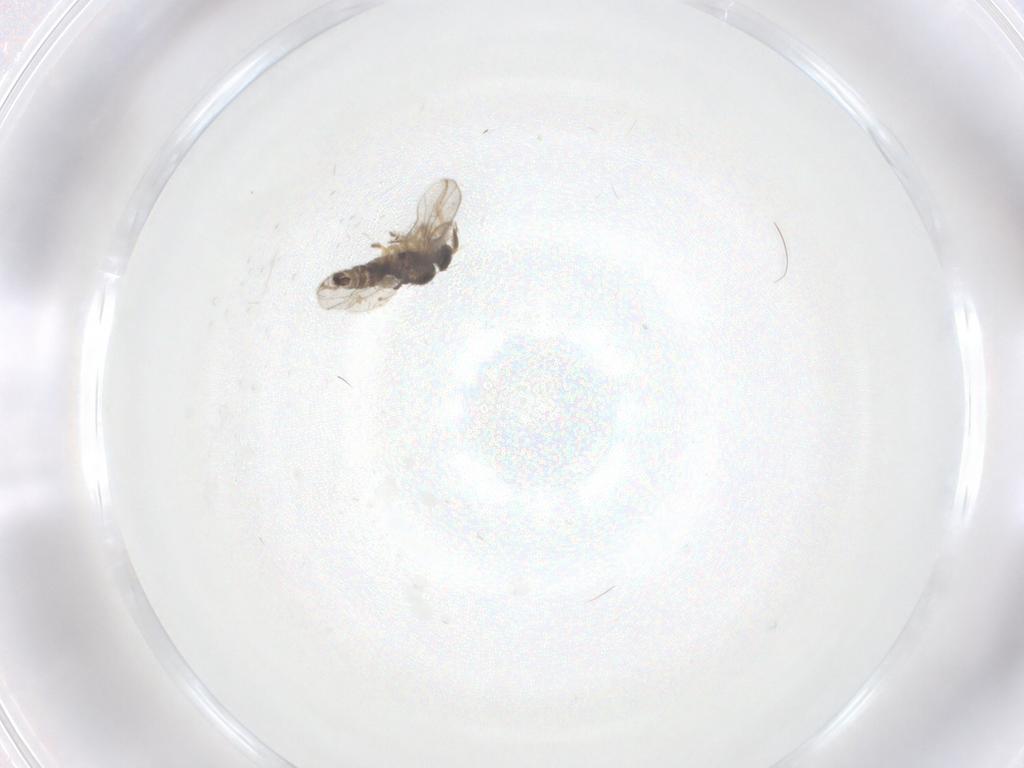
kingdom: Animalia
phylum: Arthropoda
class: Insecta
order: Diptera
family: Hybotidae
